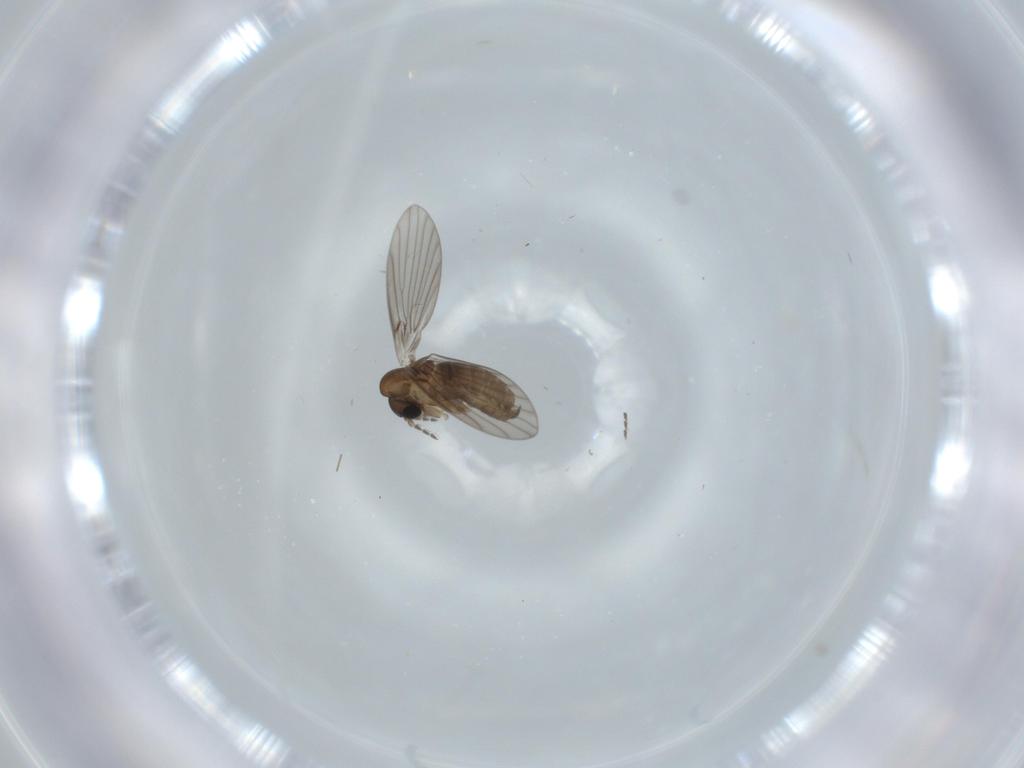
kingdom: Animalia
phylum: Arthropoda
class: Insecta
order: Diptera
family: Psychodidae
